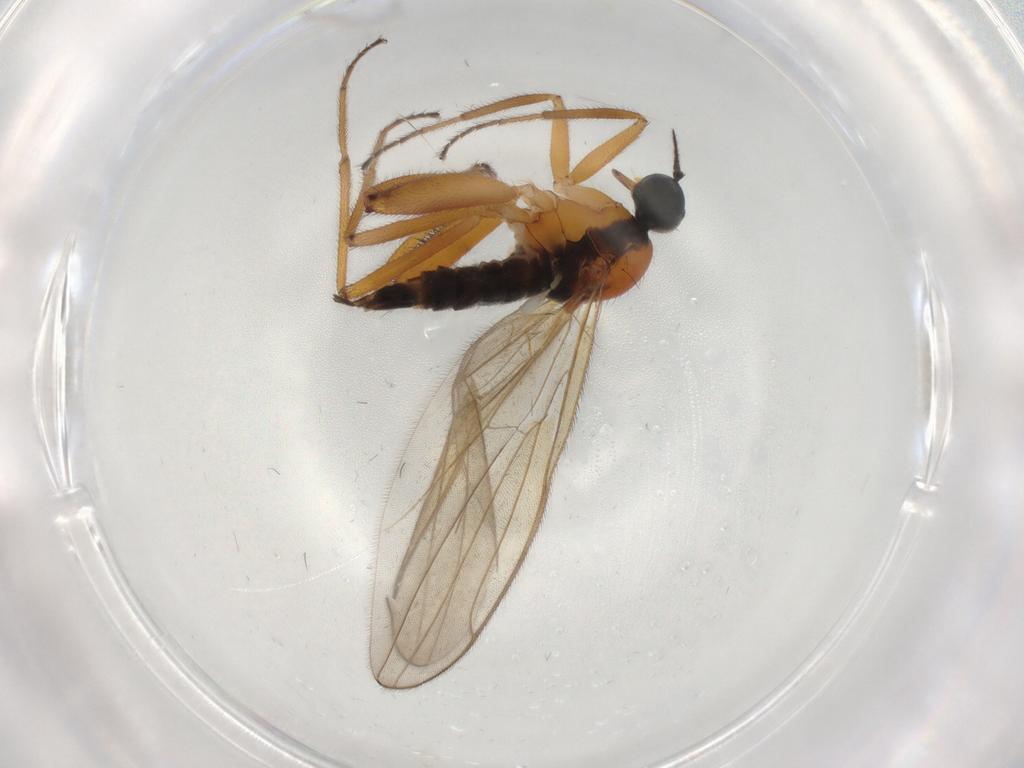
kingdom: Animalia
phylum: Arthropoda
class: Insecta
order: Diptera
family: Hybotidae
